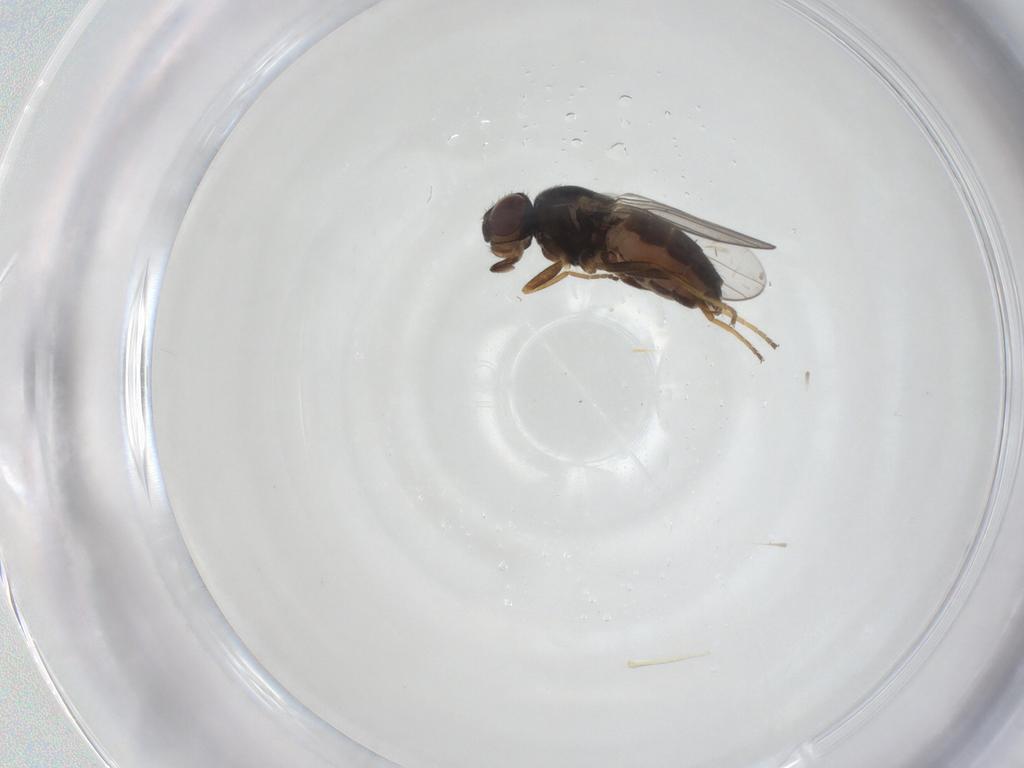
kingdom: Animalia
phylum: Arthropoda
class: Insecta
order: Diptera
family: Chloropidae
